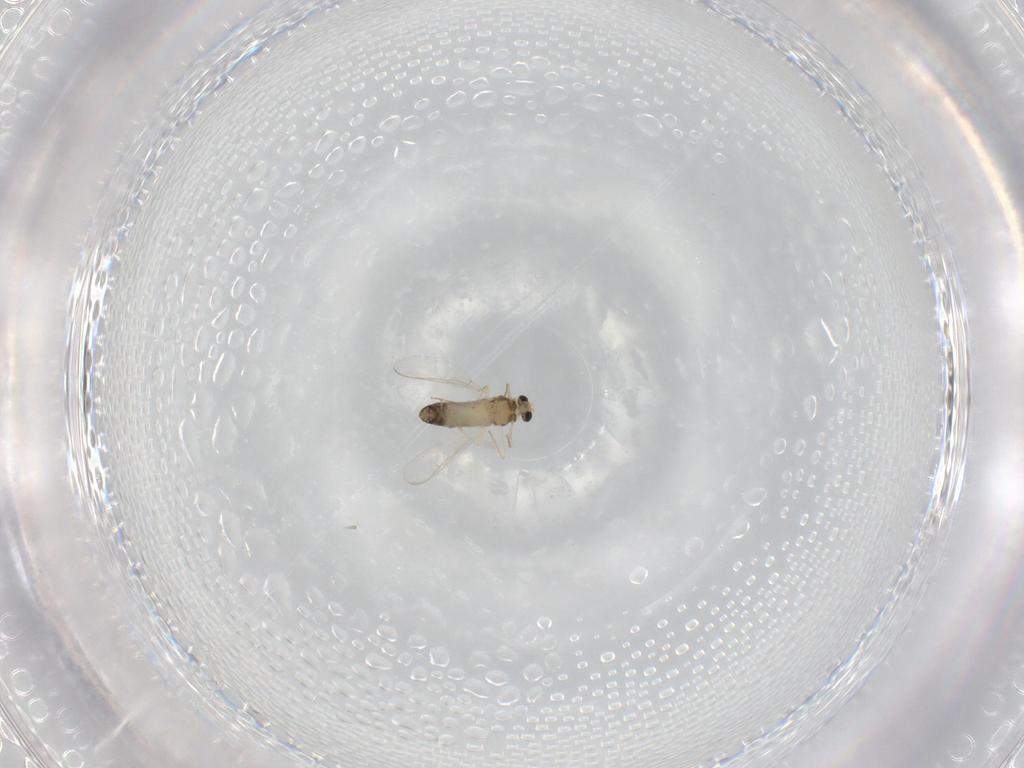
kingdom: Animalia
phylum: Arthropoda
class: Insecta
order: Diptera
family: Chironomidae
